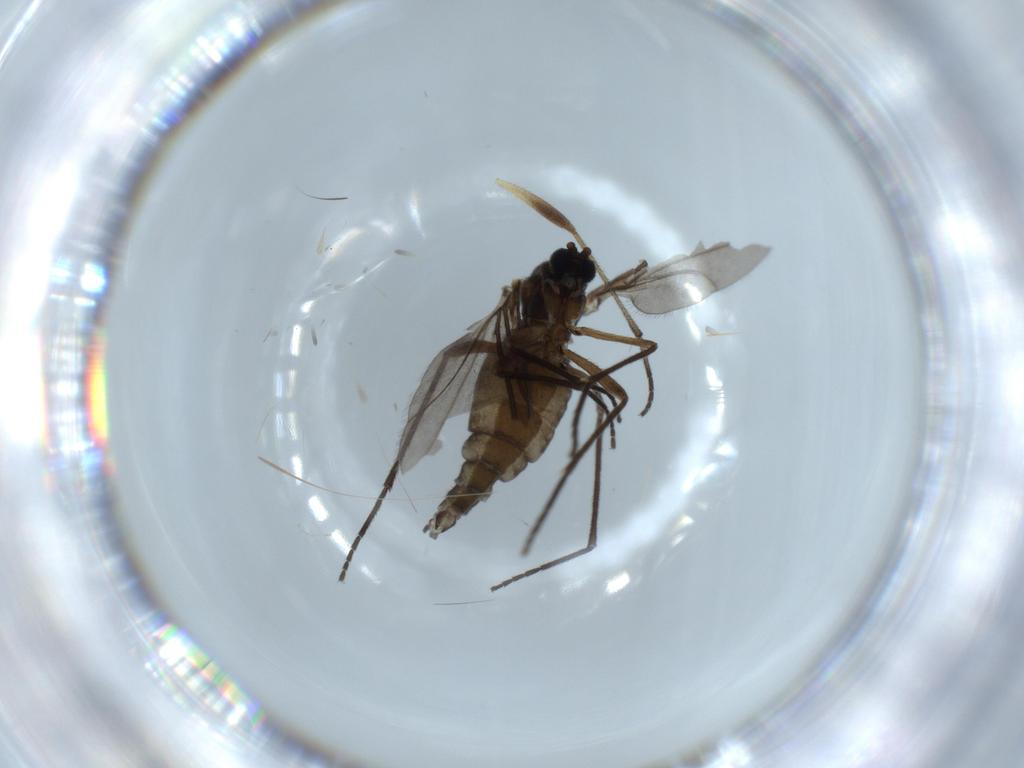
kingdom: Animalia
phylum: Arthropoda
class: Insecta
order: Diptera
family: Sciaridae
